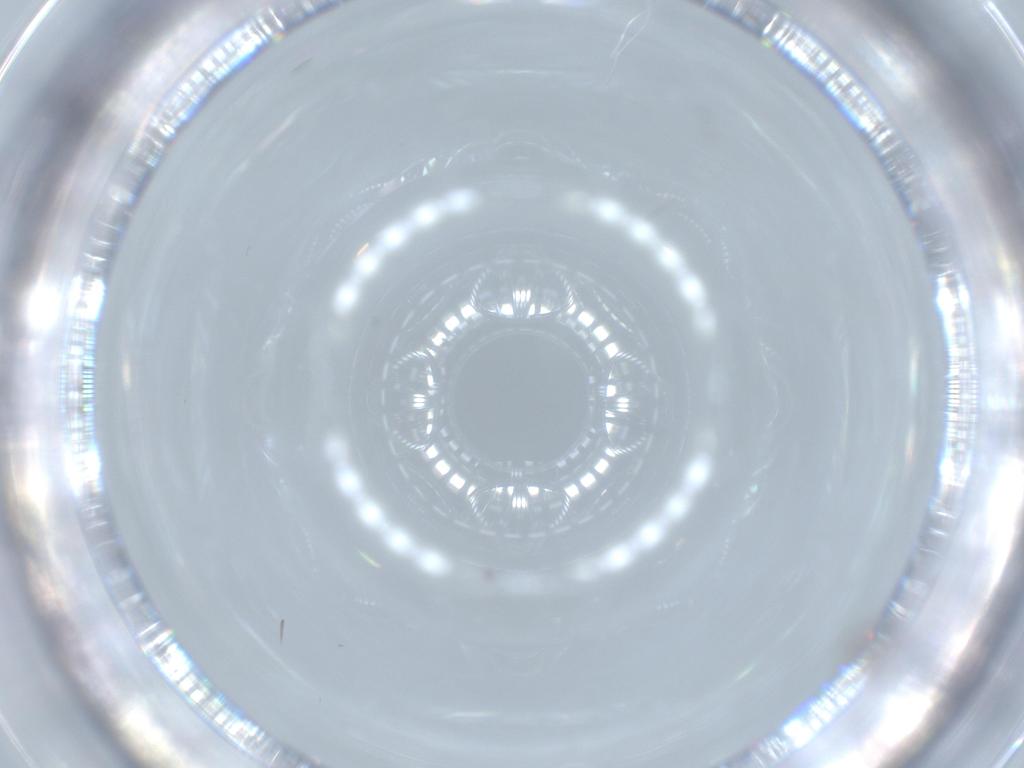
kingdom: Animalia
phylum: Arthropoda
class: Insecta
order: Diptera
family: Cecidomyiidae
